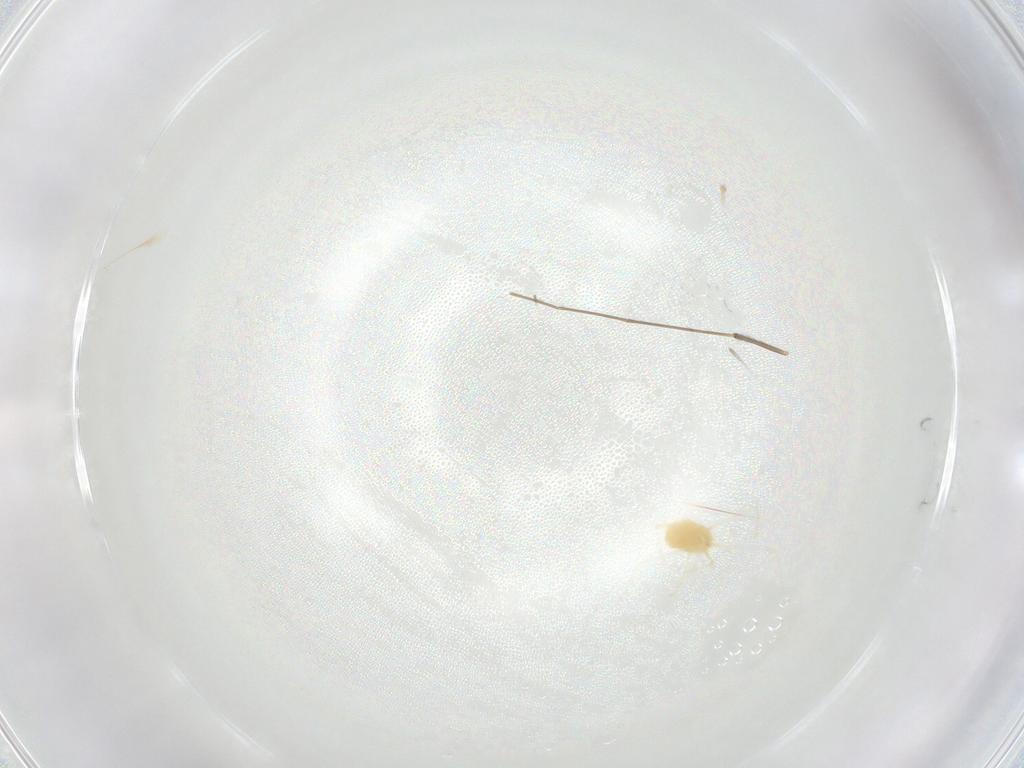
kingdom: Animalia
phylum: Arthropoda
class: Arachnida
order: Trombidiformes
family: Tetranychidae
